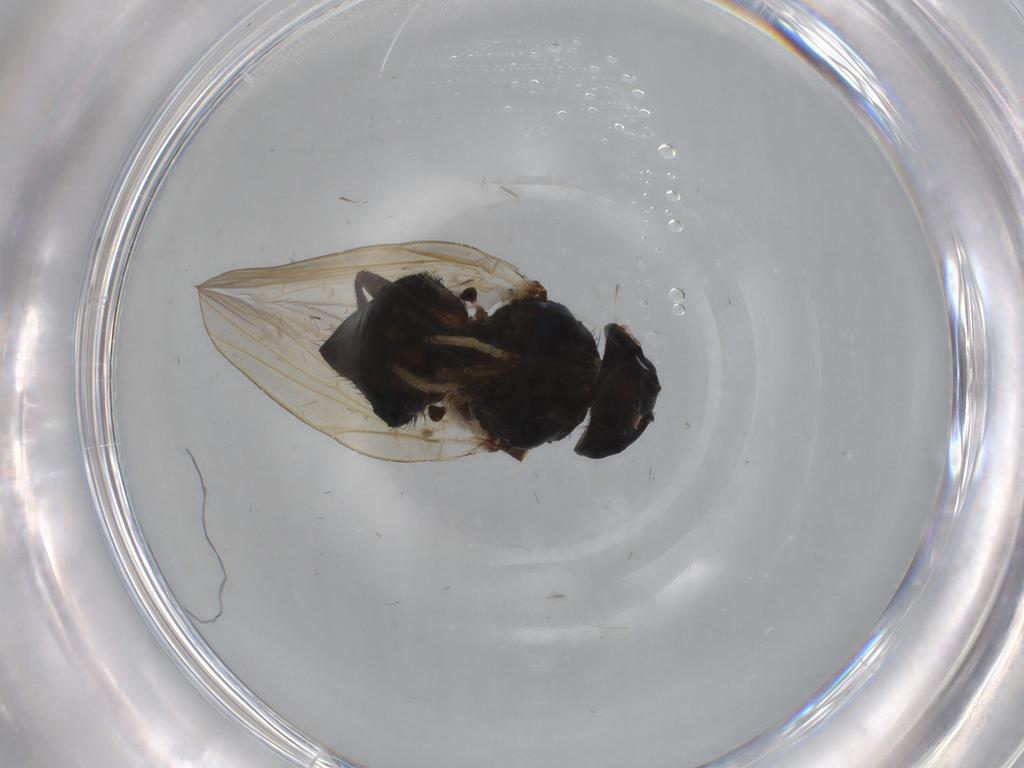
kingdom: Animalia
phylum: Arthropoda
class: Insecta
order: Diptera
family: Lonchaeidae
